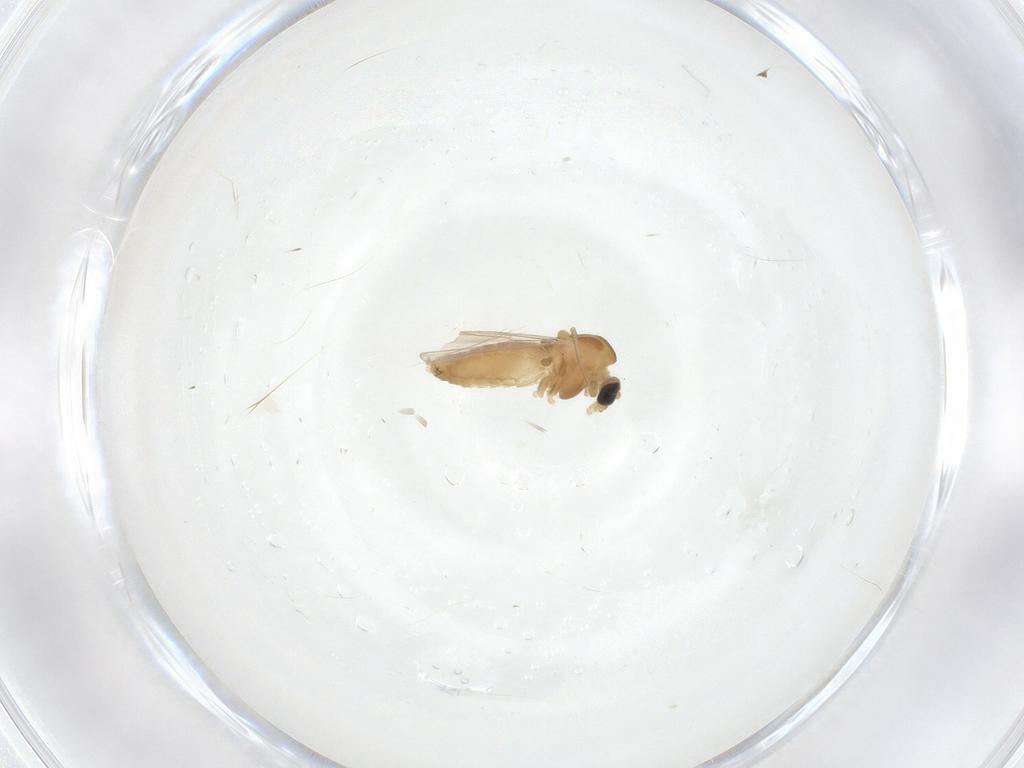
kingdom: Animalia
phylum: Arthropoda
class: Insecta
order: Diptera
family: Chironomidae
